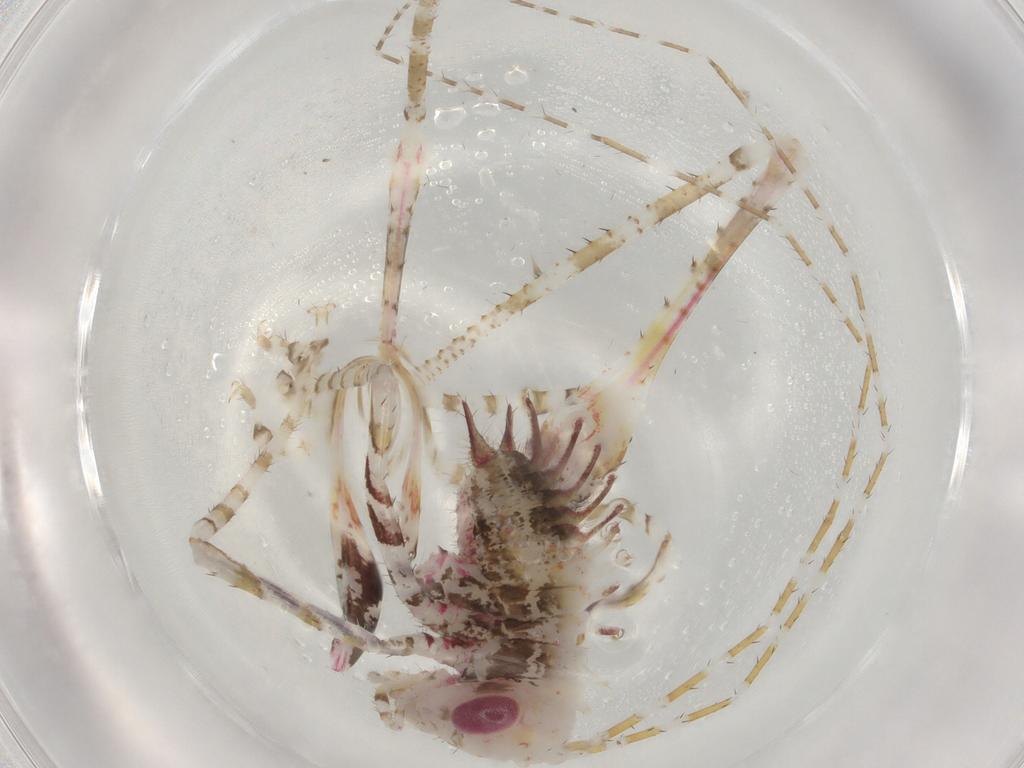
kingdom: Animalia
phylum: Arthropoda
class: Insecta
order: Orthoptera
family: Tettigoniidae
